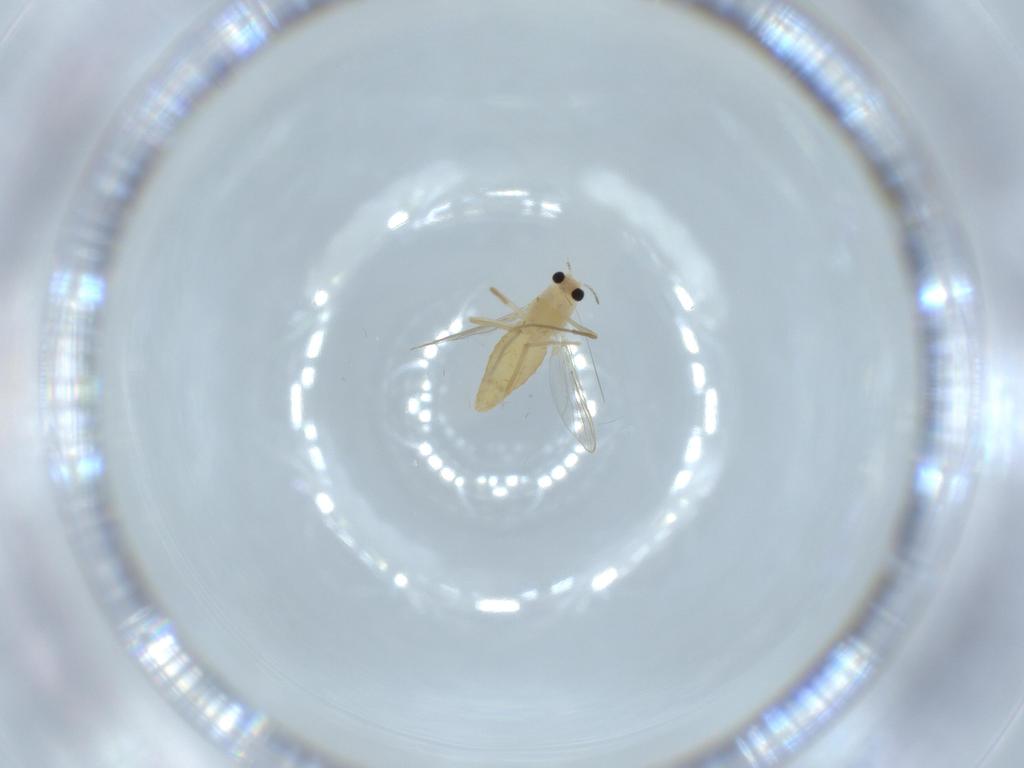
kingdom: Animalia
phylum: Arthropoda
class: Insecta
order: Diptera
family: Chironomidae
